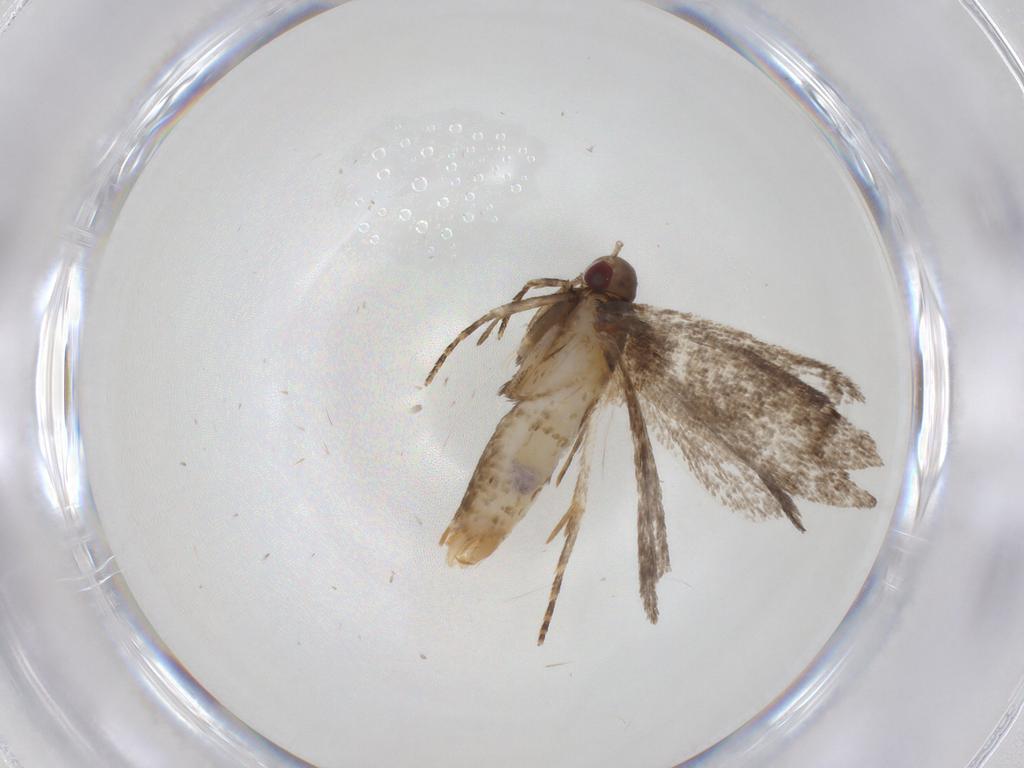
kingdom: Animalia
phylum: Arthropoda
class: Insecta
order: Lepidoptera
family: Gelechiidae
